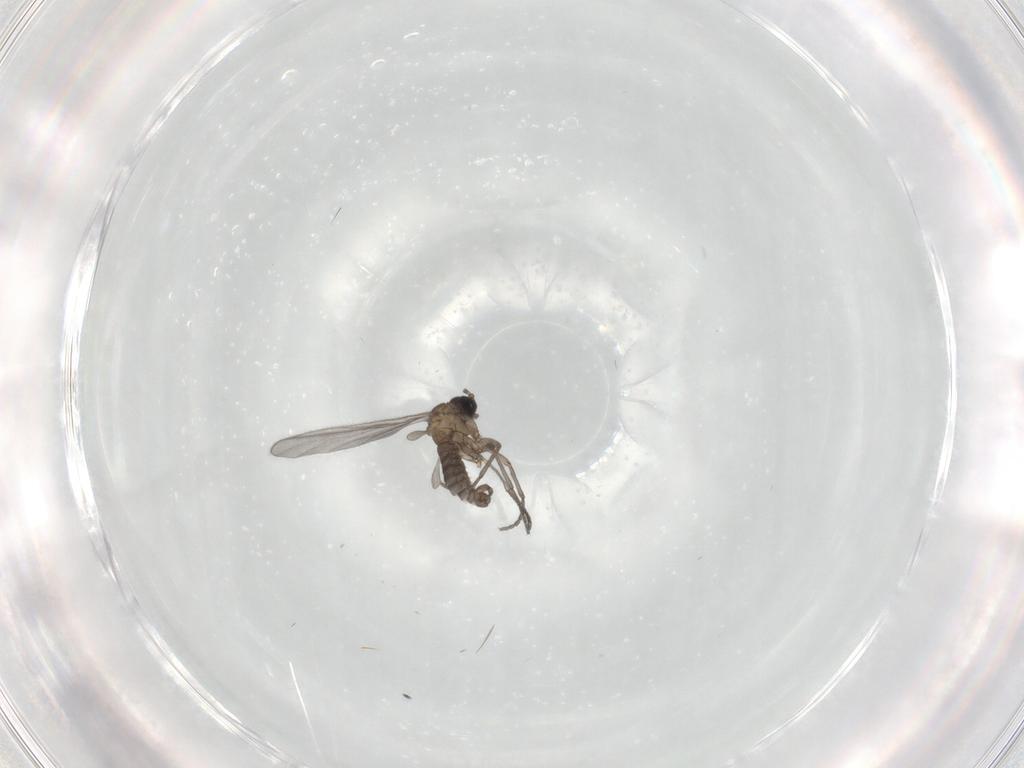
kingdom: Animalia
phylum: Arthropoda
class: Insecta
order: Diptera
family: Sciaridae
